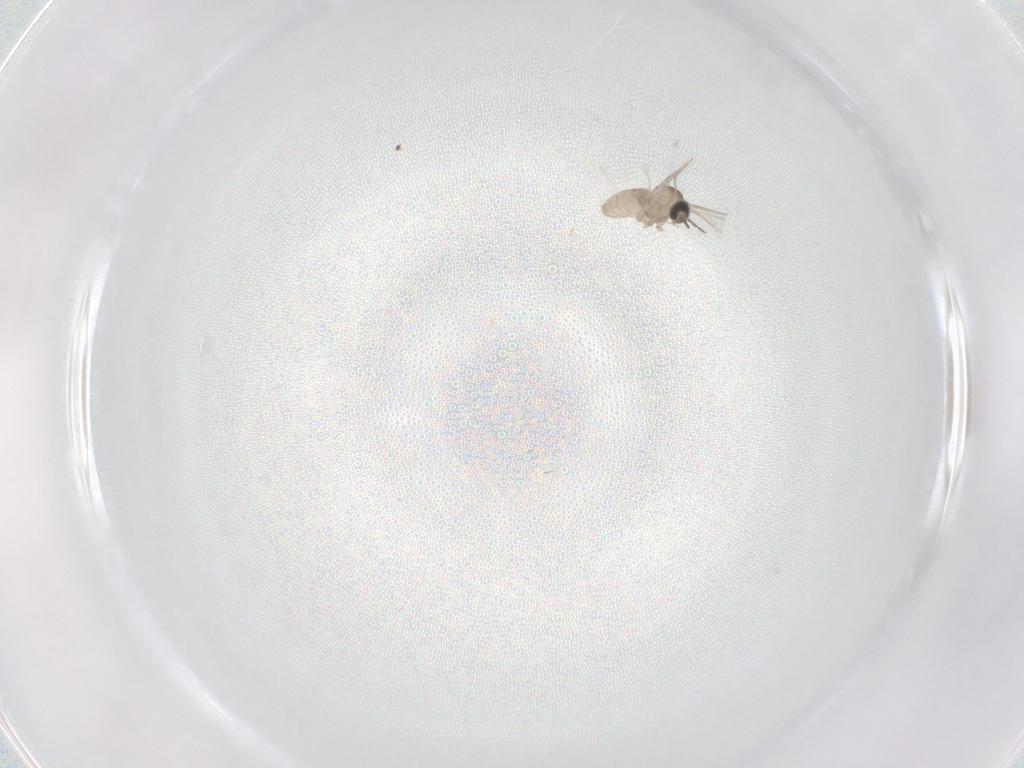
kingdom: Animalia
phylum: Arthropoda
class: Insecta
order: Diptera
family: Cecidomyiidae
